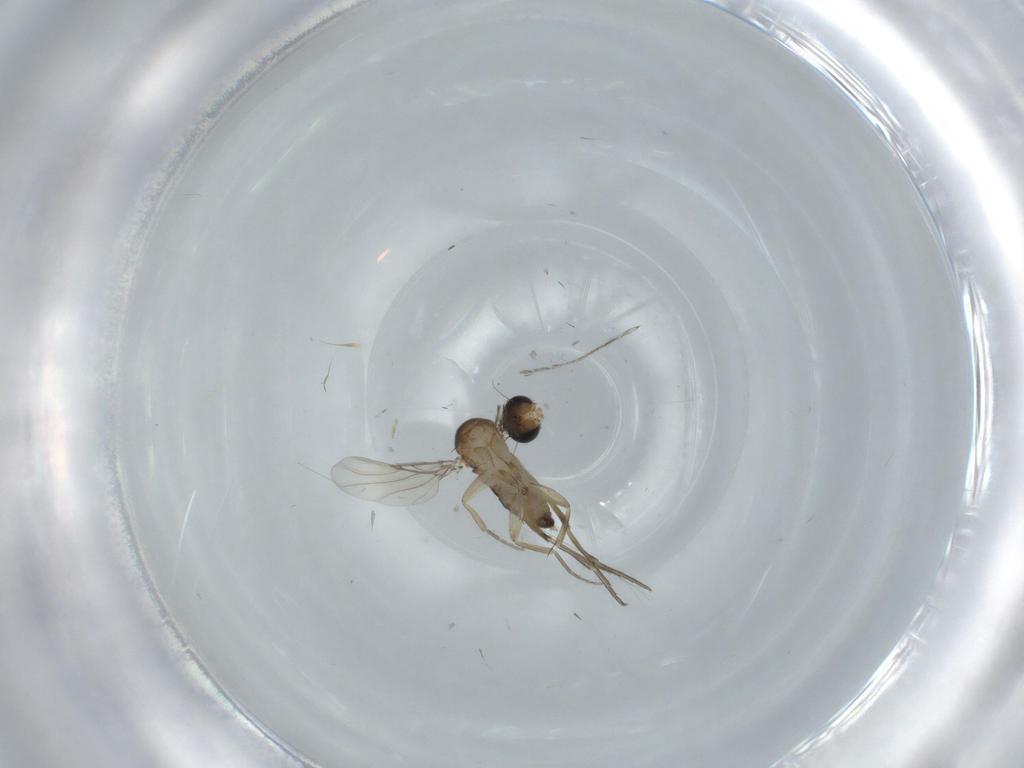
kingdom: Animalia
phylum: Arthropoda
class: Insecta
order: Diptera
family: Phoridae
